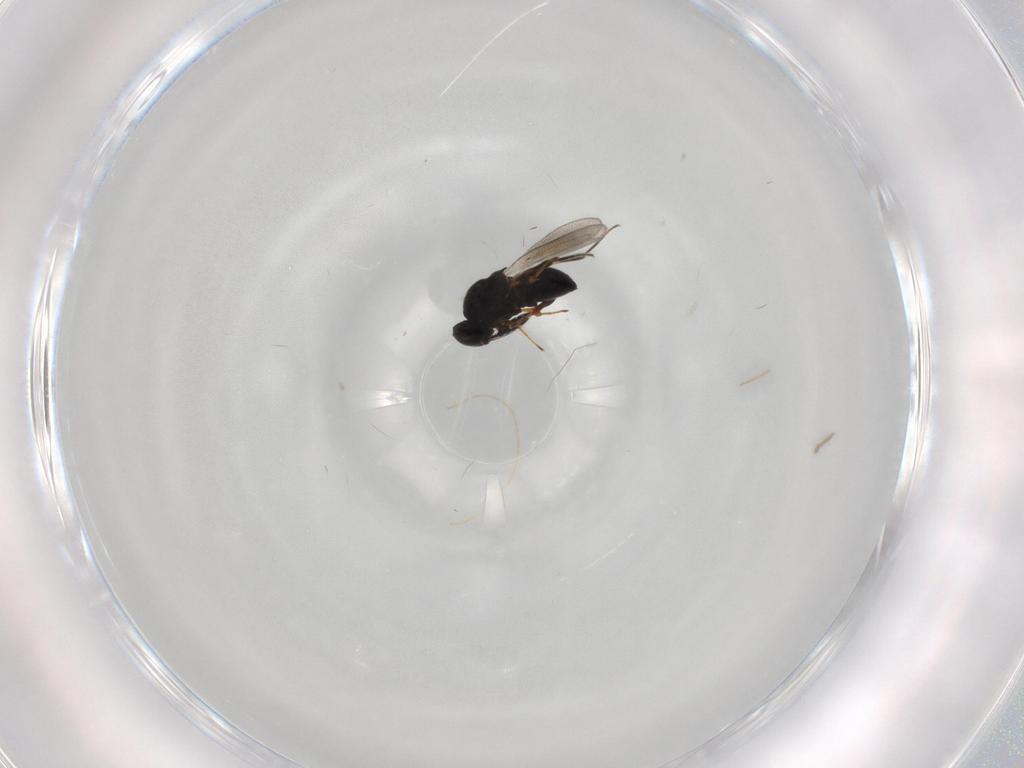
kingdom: Animalia
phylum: Arthropoda
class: Insecta
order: Hymenoptera
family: Platygastridae
